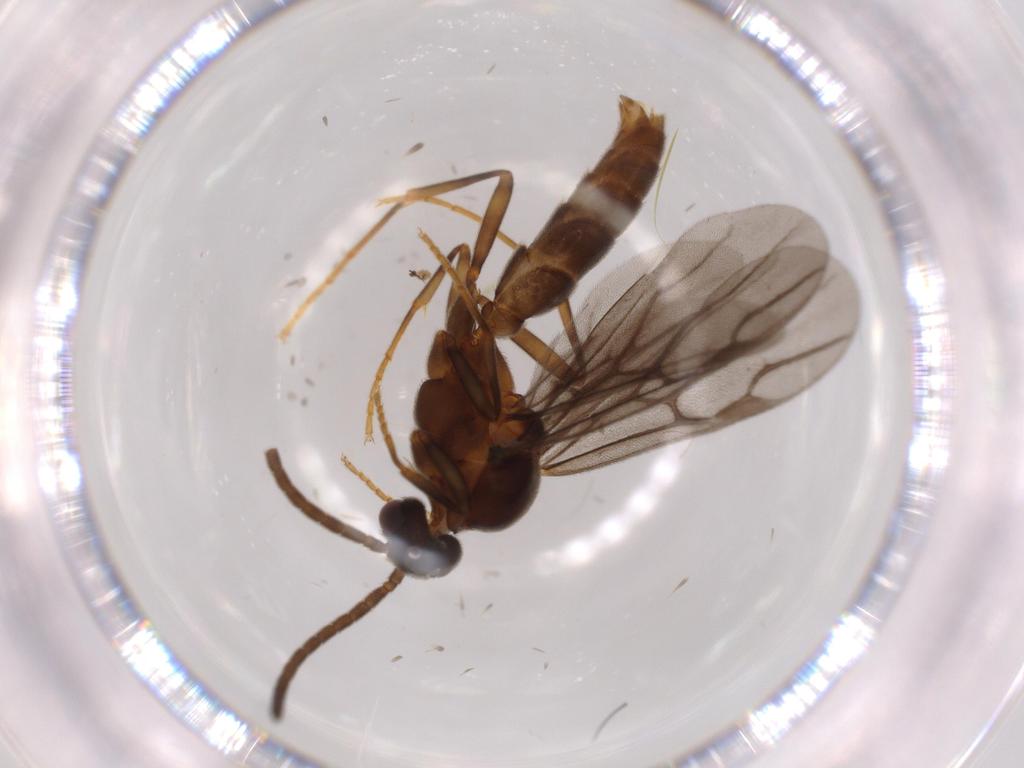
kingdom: Animalia
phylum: Arthropoda
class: Insecta
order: Hymenoptera
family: Formicidae
